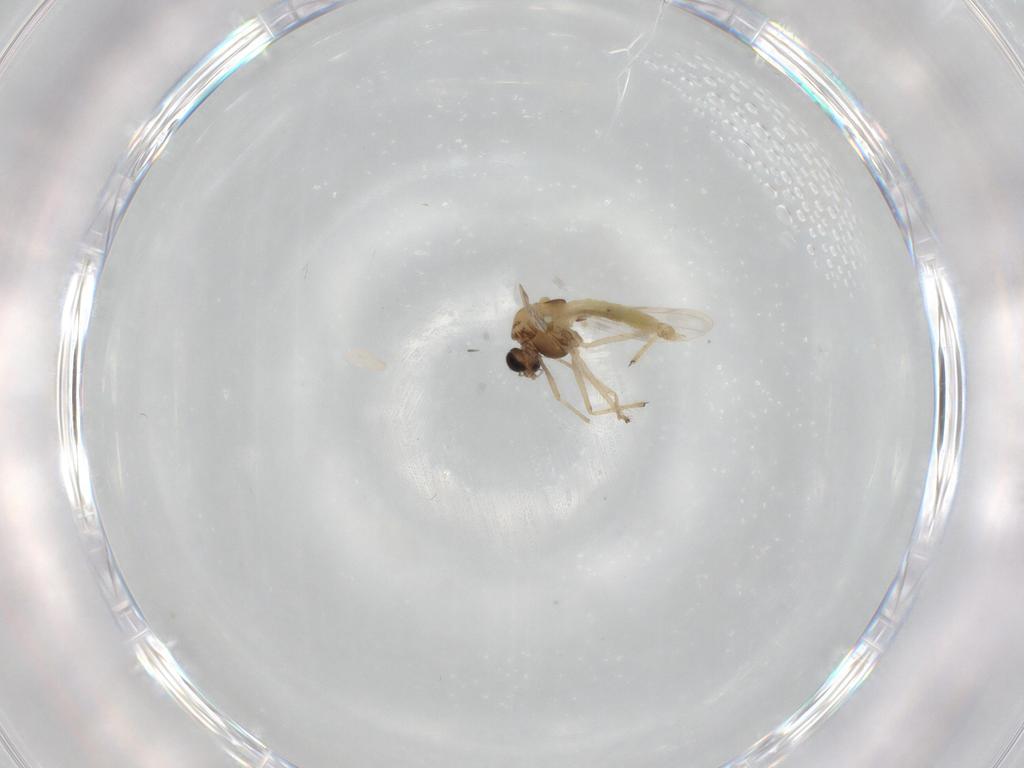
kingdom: Animalia
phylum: Arthropoda
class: Insecta
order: Diptera
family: Chironomidae
